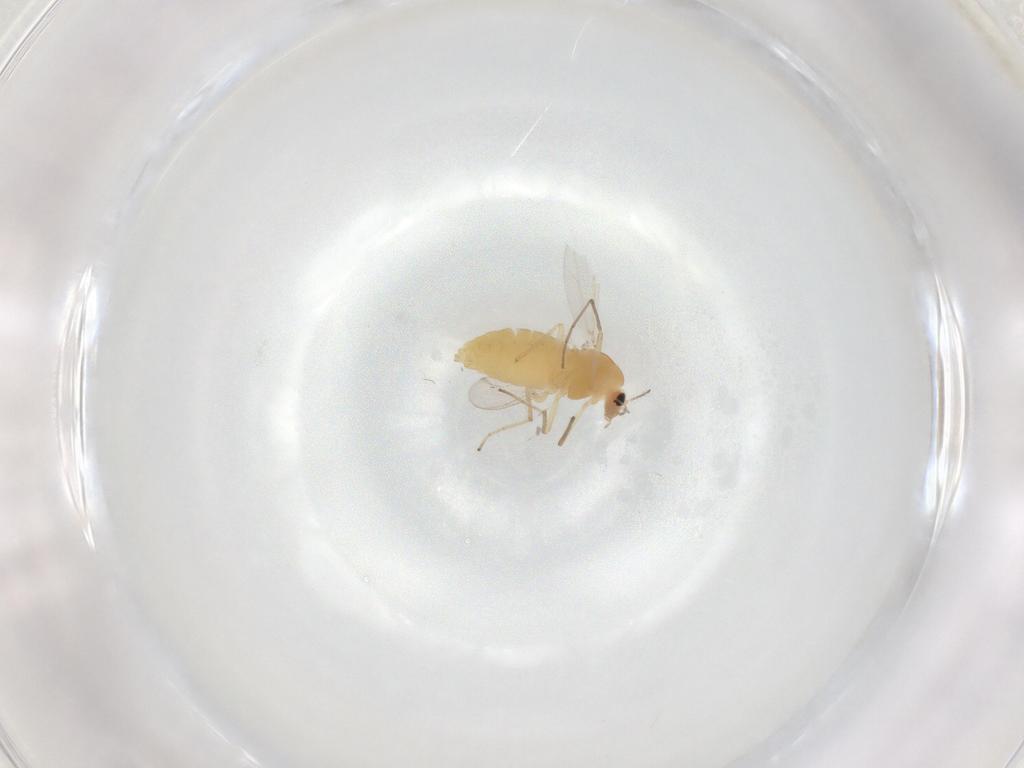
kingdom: Animalia
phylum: Arthropoda
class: Insecta
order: Diptera
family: Chironomidae
